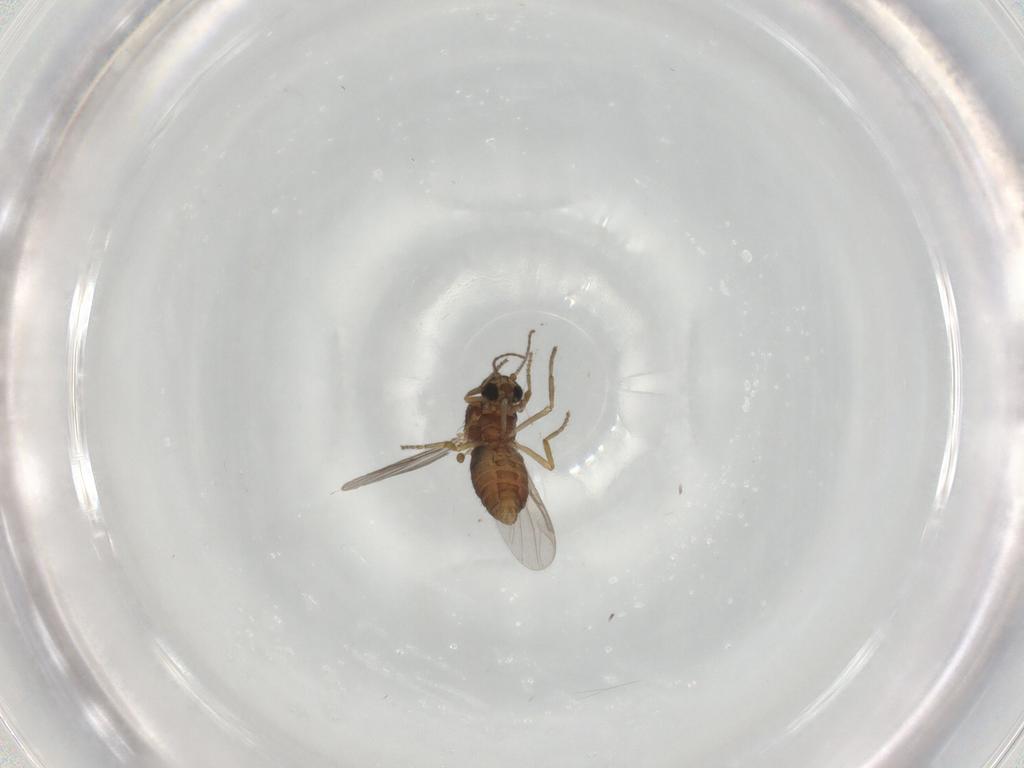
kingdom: Animalia
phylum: Arthropoda
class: Insecta
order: Diptera
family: Ceratopogonidae
